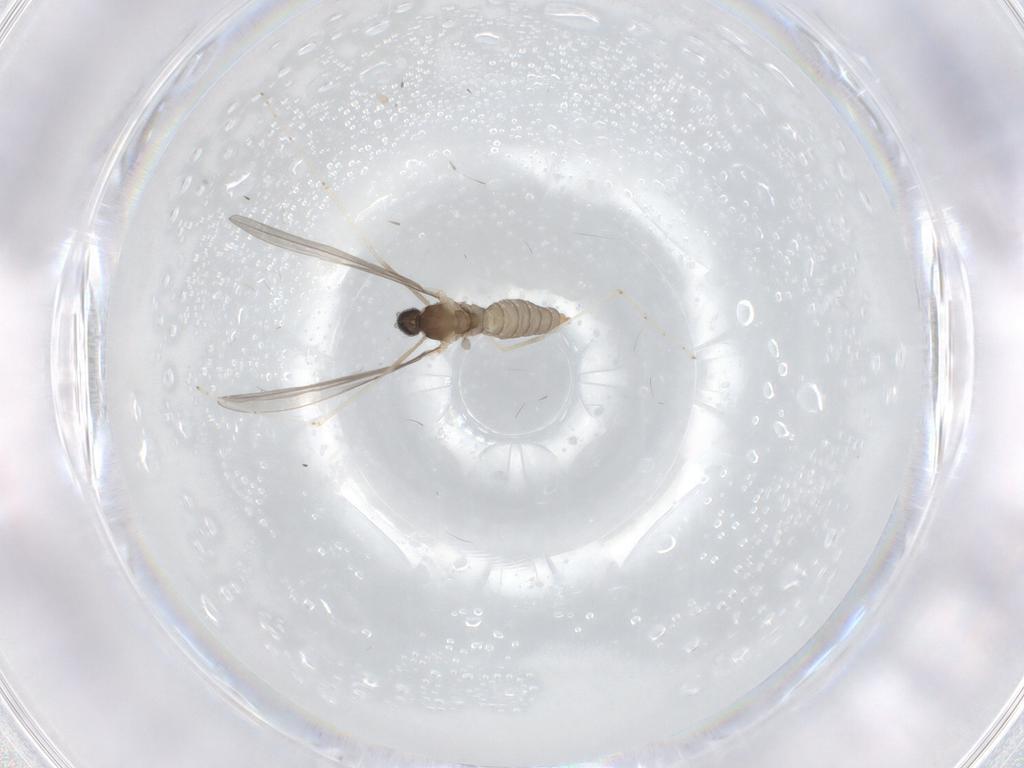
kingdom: Animalia
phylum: Arthropoda
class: Insecta
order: Diptera
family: Cecidomyiidae
